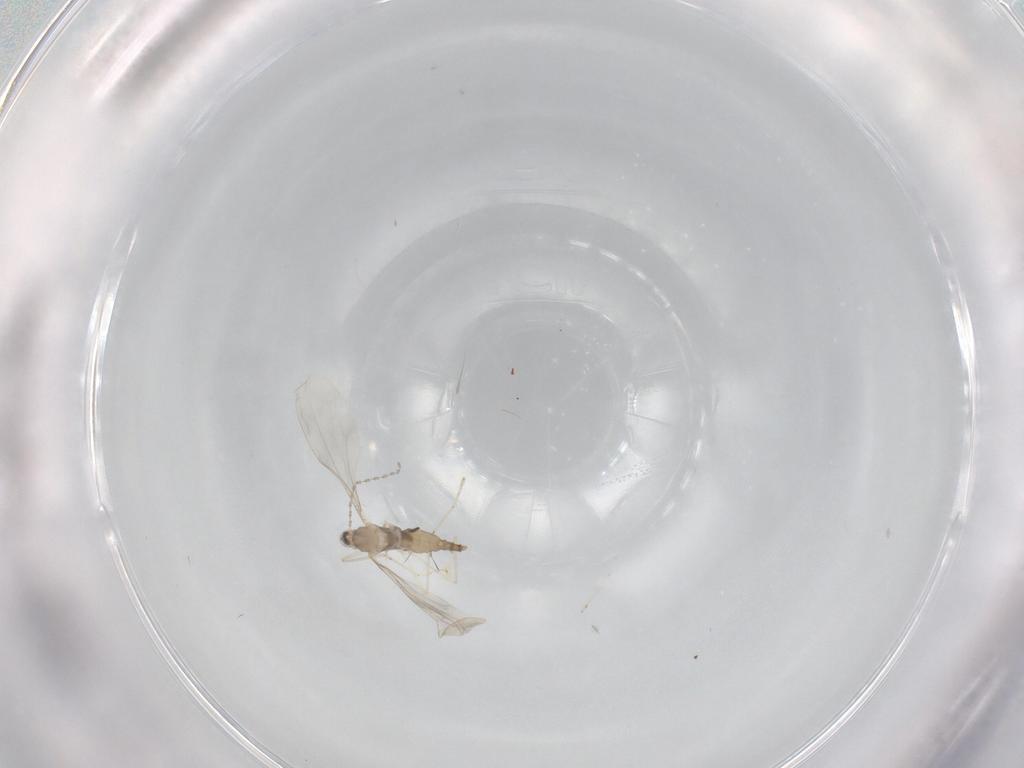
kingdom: Animalia
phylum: Arthropoda
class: Insecta
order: Diptera
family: Cecidomyiidae
